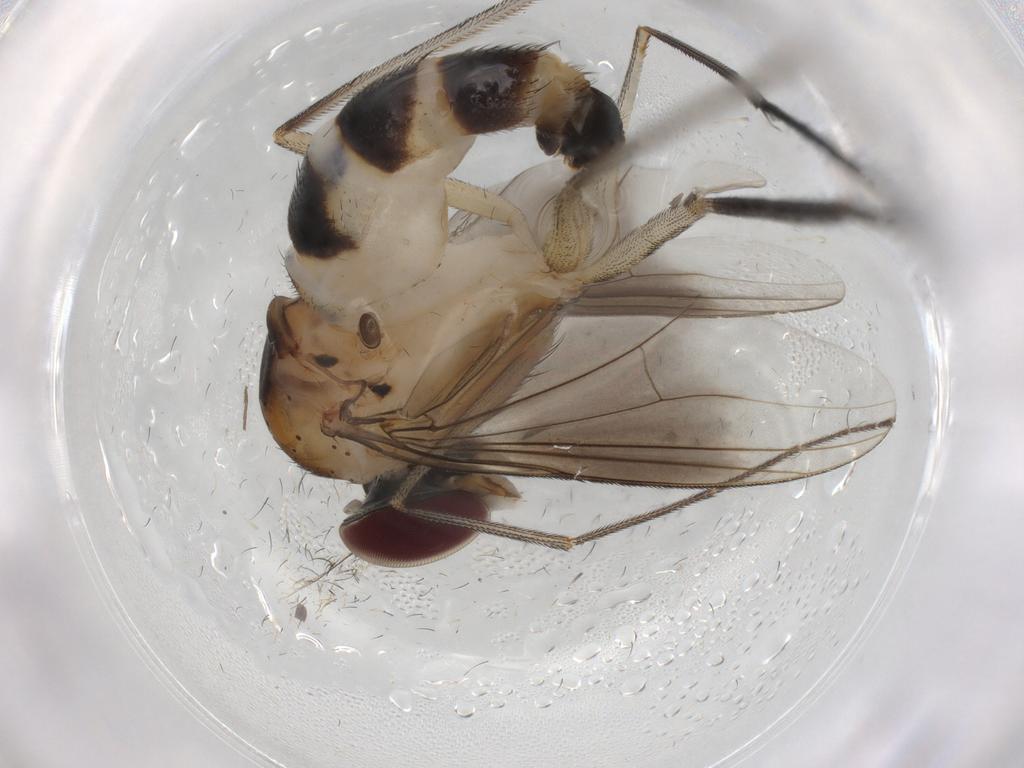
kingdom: Animalia
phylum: Arthropoda
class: Insecta
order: Diptera
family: Dolichopodidae
